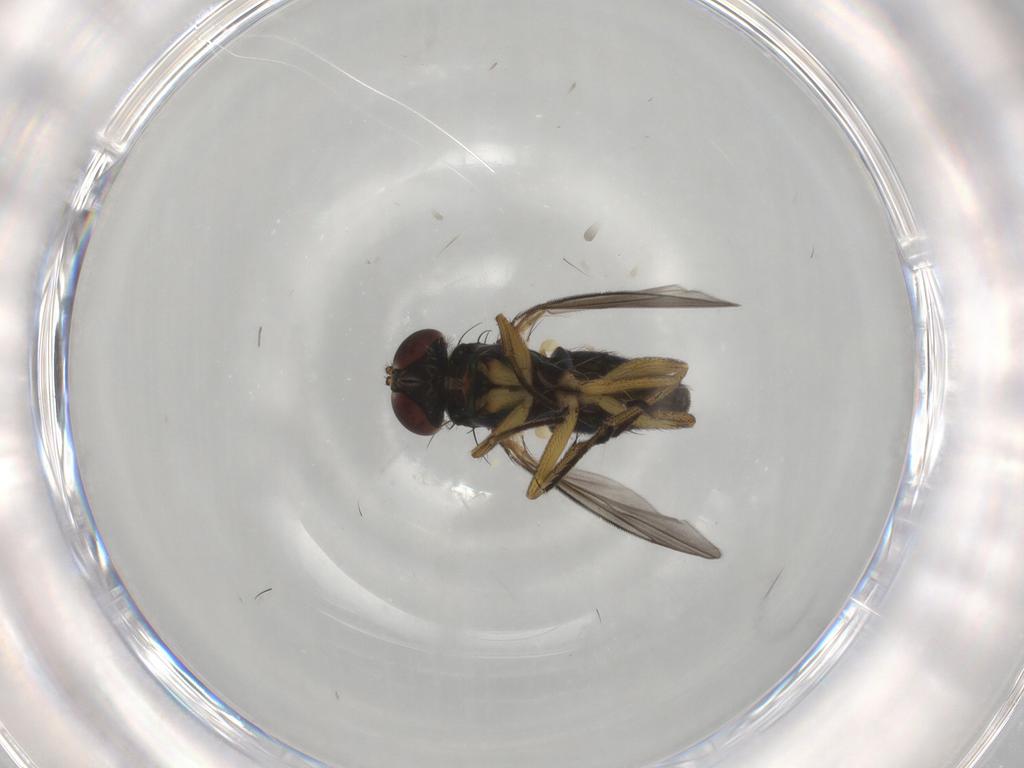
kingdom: Animalia
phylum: Arthropoda
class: Insecta
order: Diptera
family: Dolichopodidae
